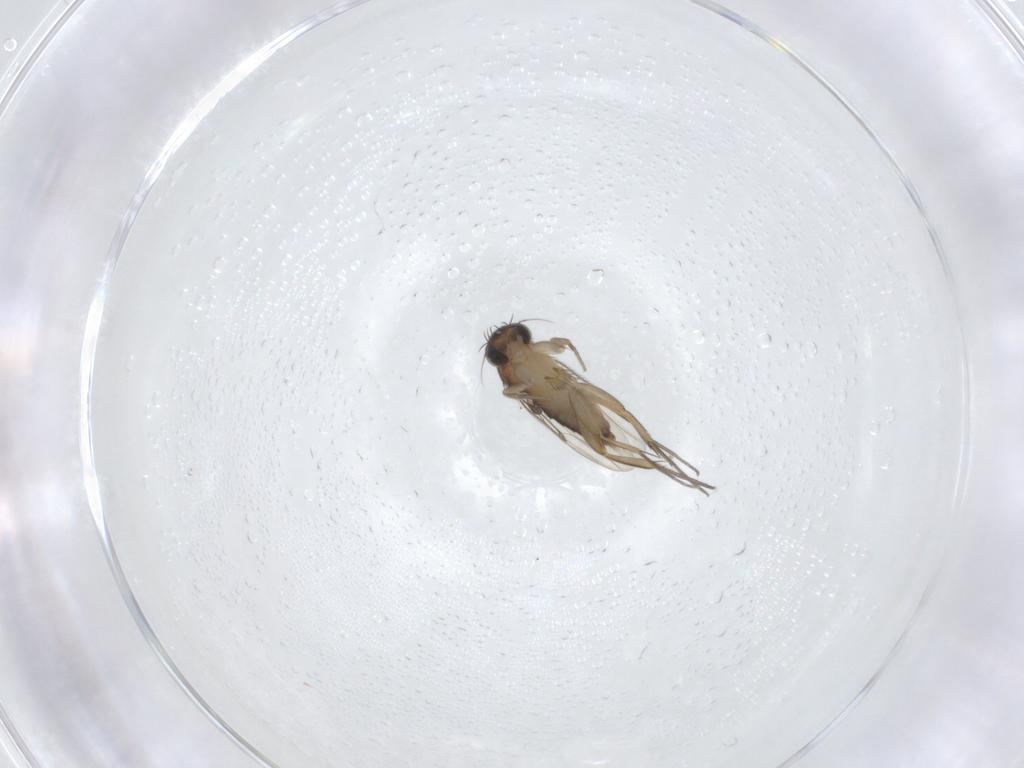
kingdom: Animalia
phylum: Arthropoda
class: Insecta
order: Diptera
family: Phoridae
